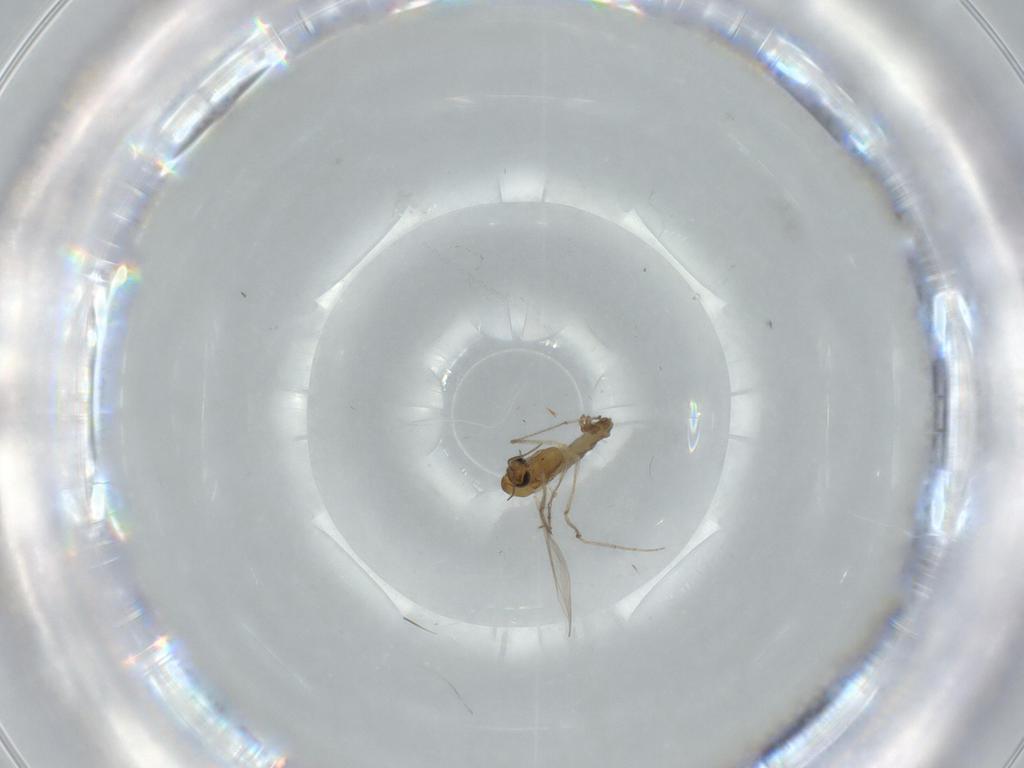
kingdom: Animalia
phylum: Arthropoda
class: Insecta
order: Diptera
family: Chironomidae
